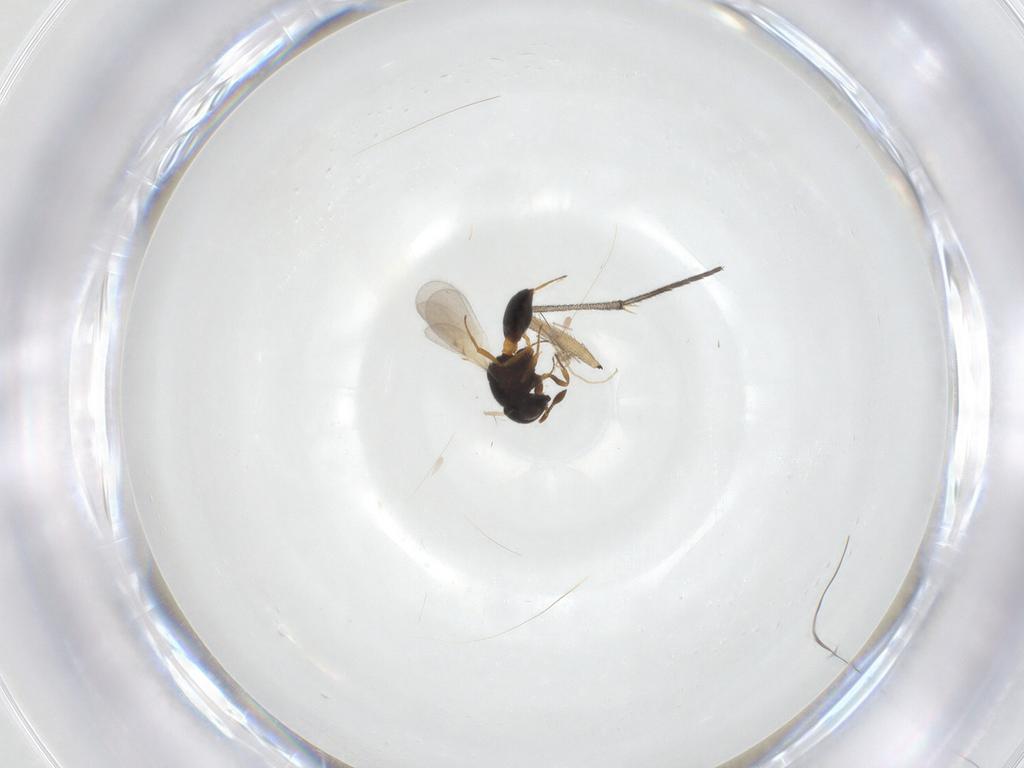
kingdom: Animalia
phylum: Arthropoda
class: Insecta
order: Hymenoptera
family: Scelionidae
